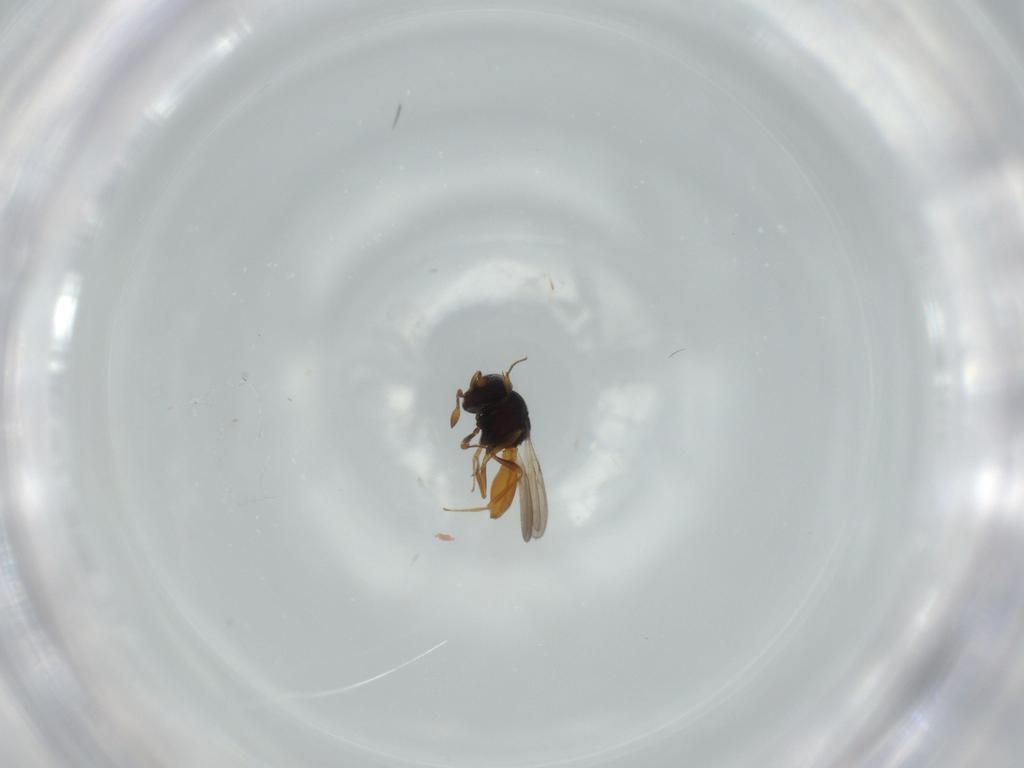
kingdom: Animalia
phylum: Arthropoda
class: Insecta
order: Hymenoptera
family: Scelionidae
